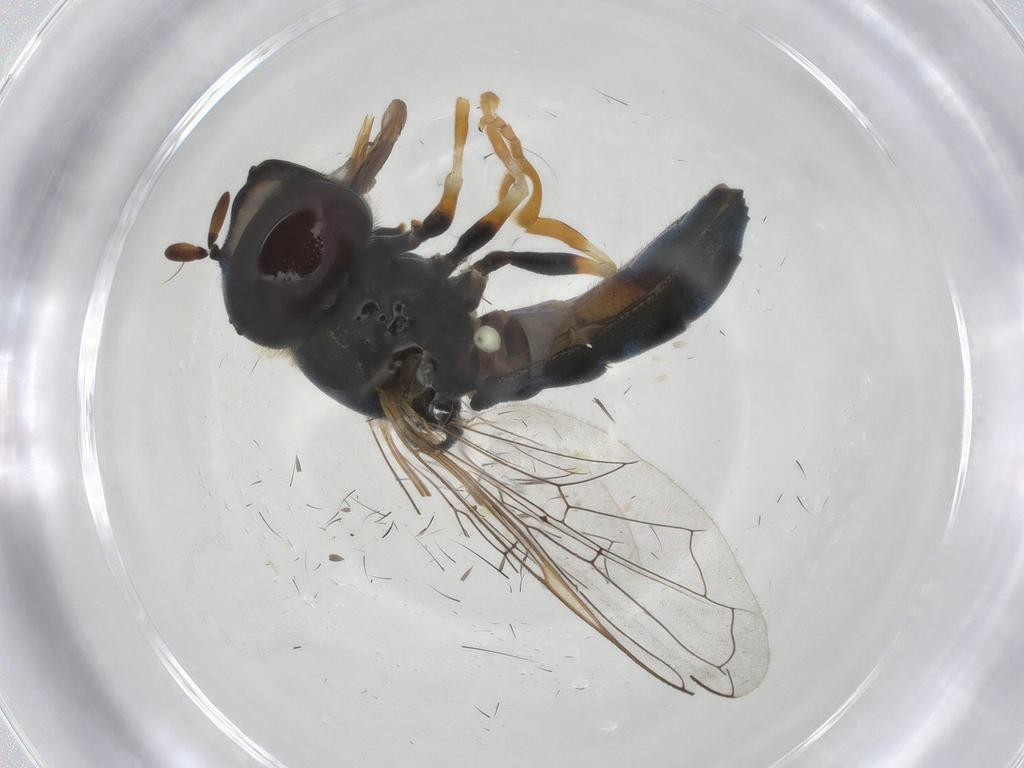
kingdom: Animalia
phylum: Arthropoda
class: Insecta
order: Diptera
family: Syrphidae
